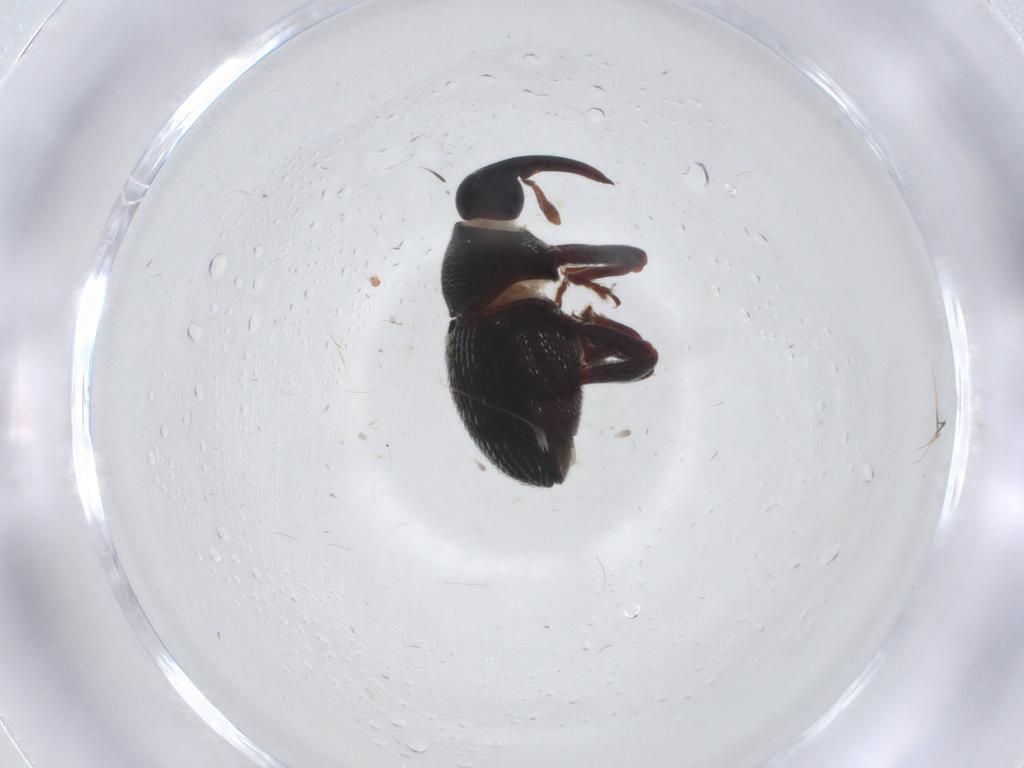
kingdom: Animalia
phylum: Arthropoda
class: Insecta
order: Coleoptera
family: Curculionidae
